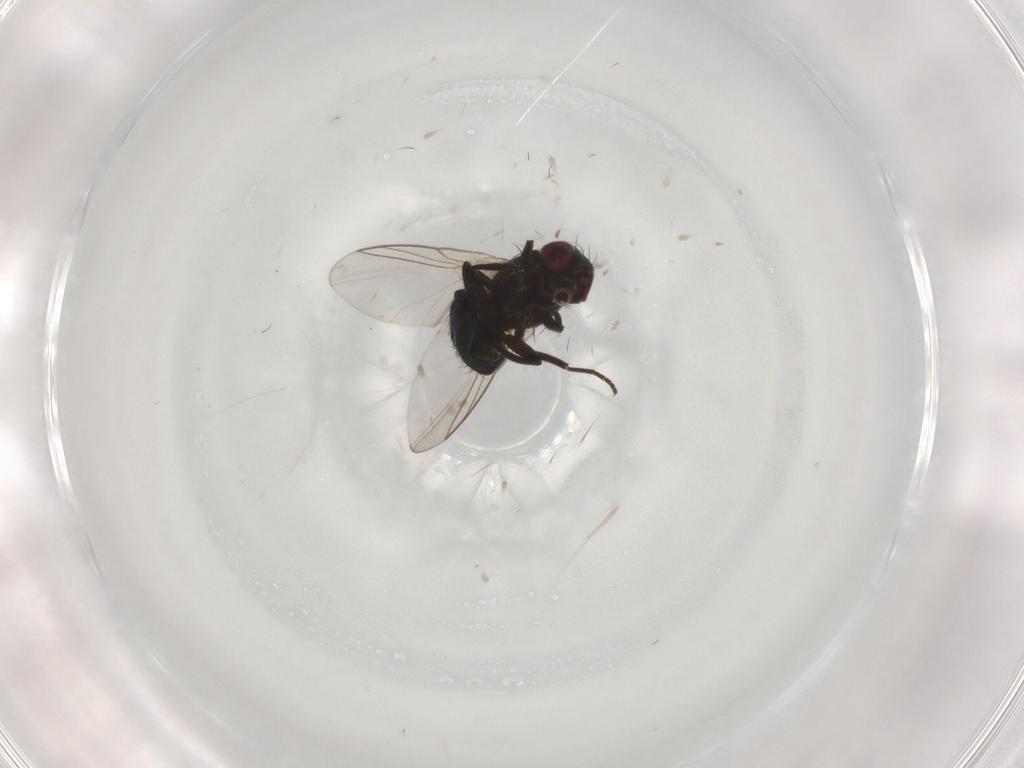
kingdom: Animalia
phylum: Arthropoda
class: Insecta
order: Diptera
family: Agromyzidae
